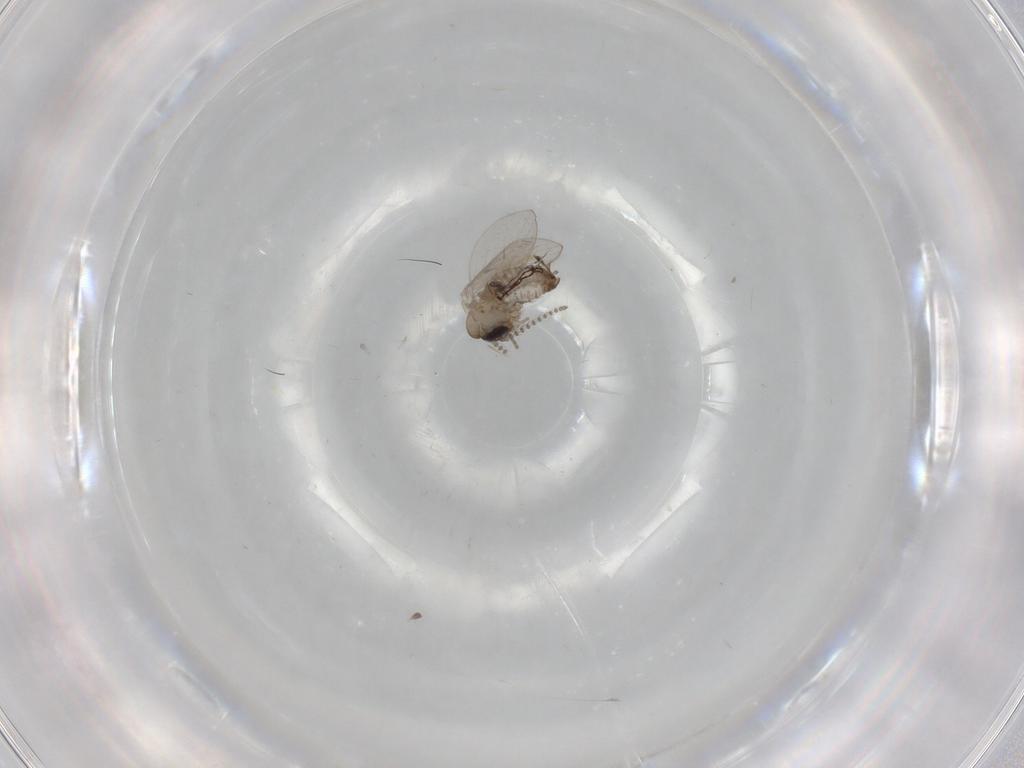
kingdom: Animalia
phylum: Arthropoda
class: Insecta
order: Diptera
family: Psychodidae
